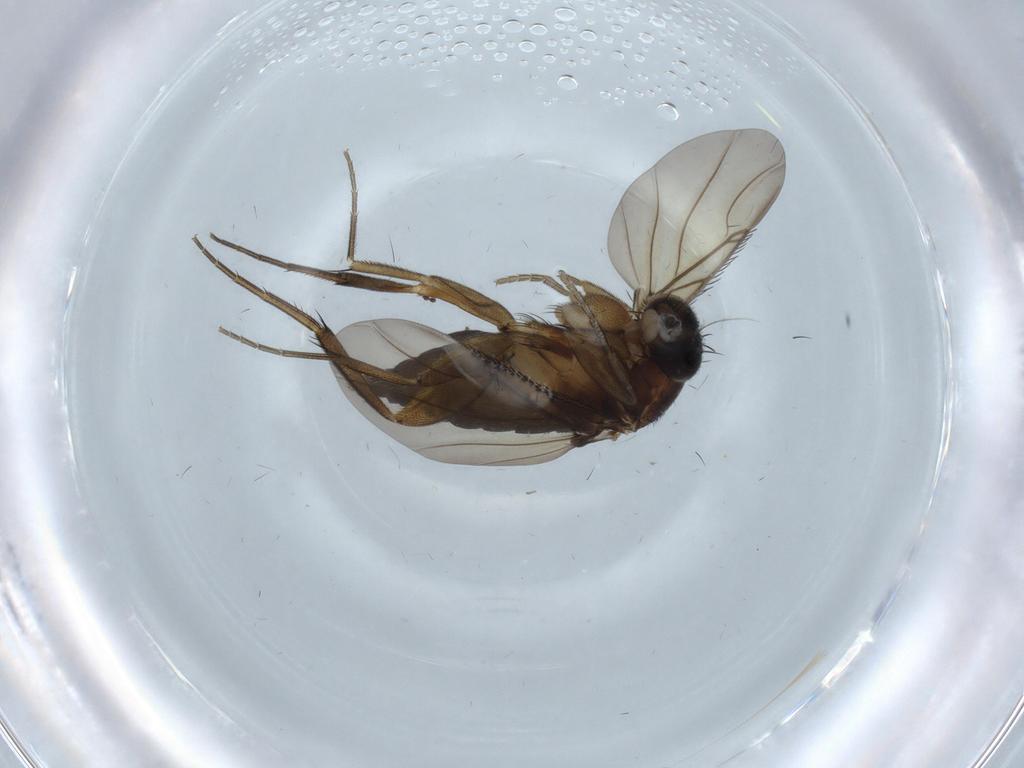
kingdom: Animalia
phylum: Arthropoda
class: Insecta
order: Diptera
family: Phoridae
